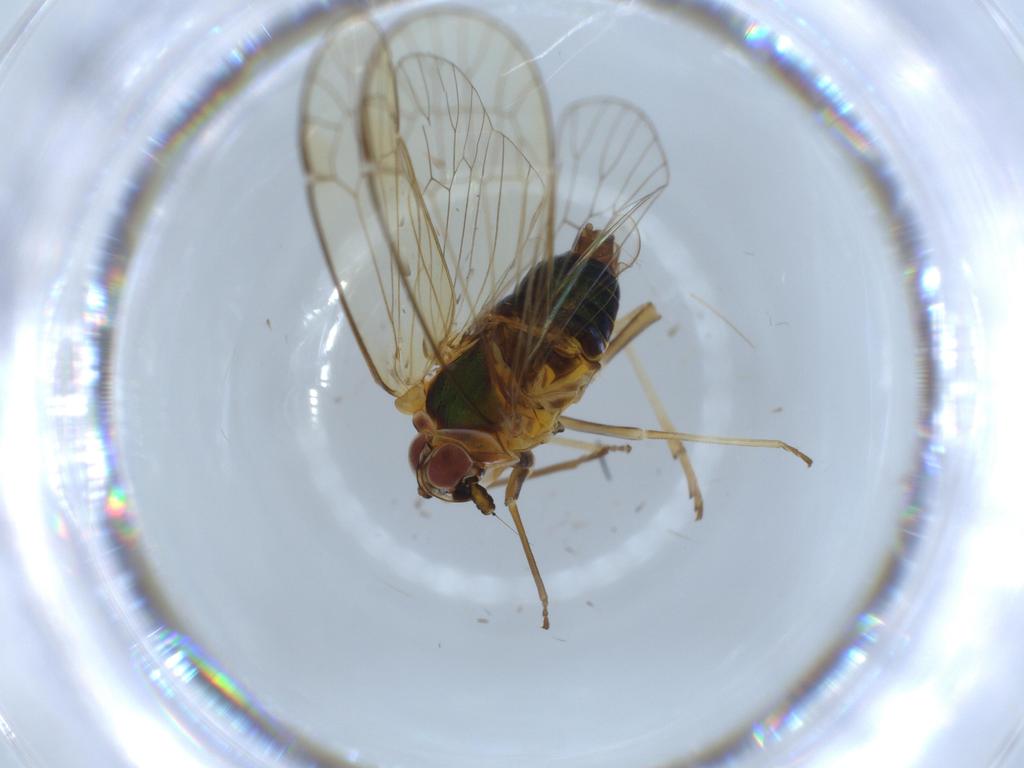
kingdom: Animalia
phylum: Arthropoda
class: Insecta
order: Hemiptera
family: Kinnaridae
